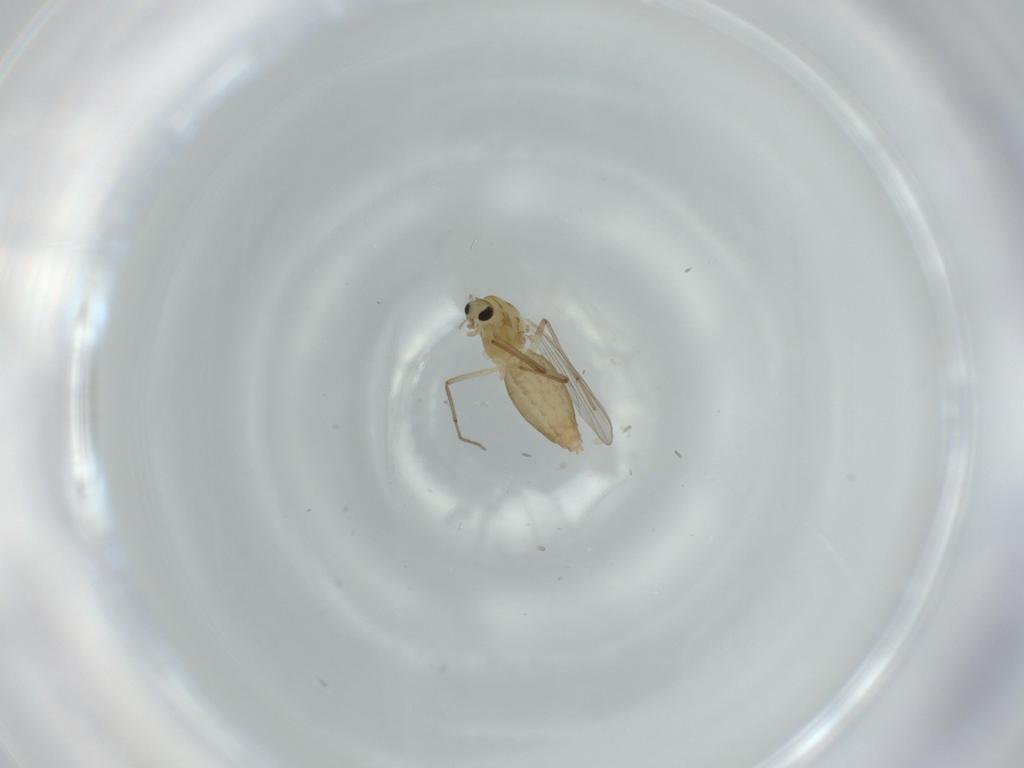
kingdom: Animalia
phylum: Arthropoda
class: Insecta
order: Diptera
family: Chironomidae
